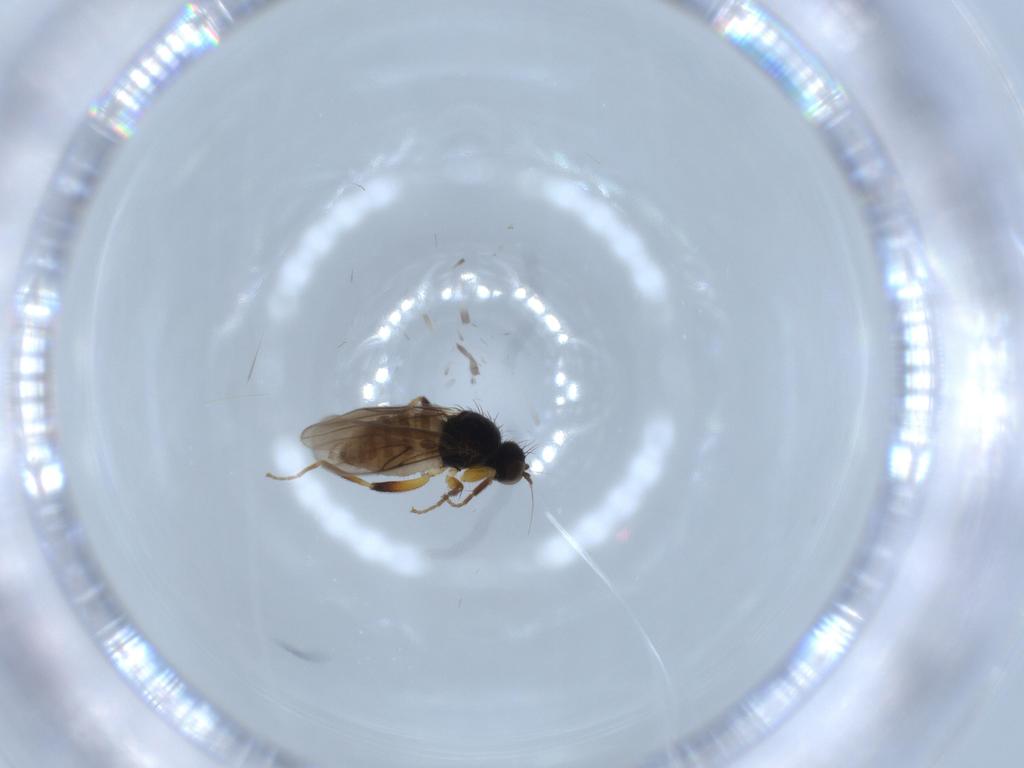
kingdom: Animalia
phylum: Arthropoda
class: Insecta
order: Diptera
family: Hybotidae
